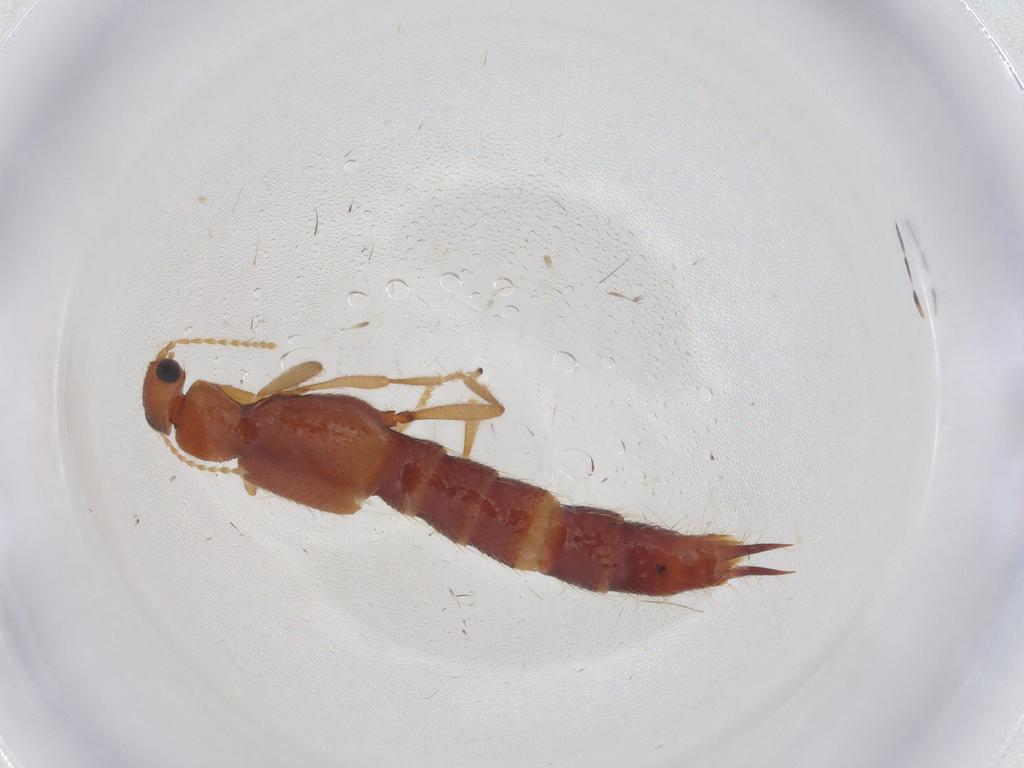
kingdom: Animalia
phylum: Arthropoda
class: Insecta
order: Coleoptera
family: Staphylinidae
